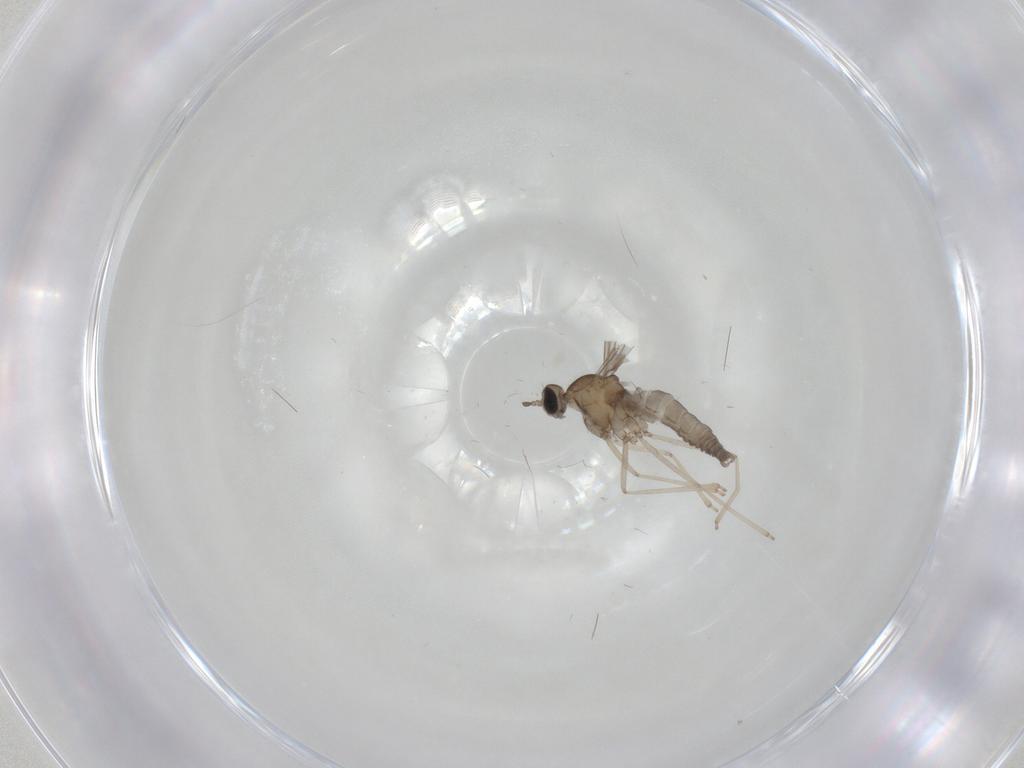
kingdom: Animalia
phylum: Arthropoda
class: Insecta
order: Diptera
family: Cecidomyiidae
